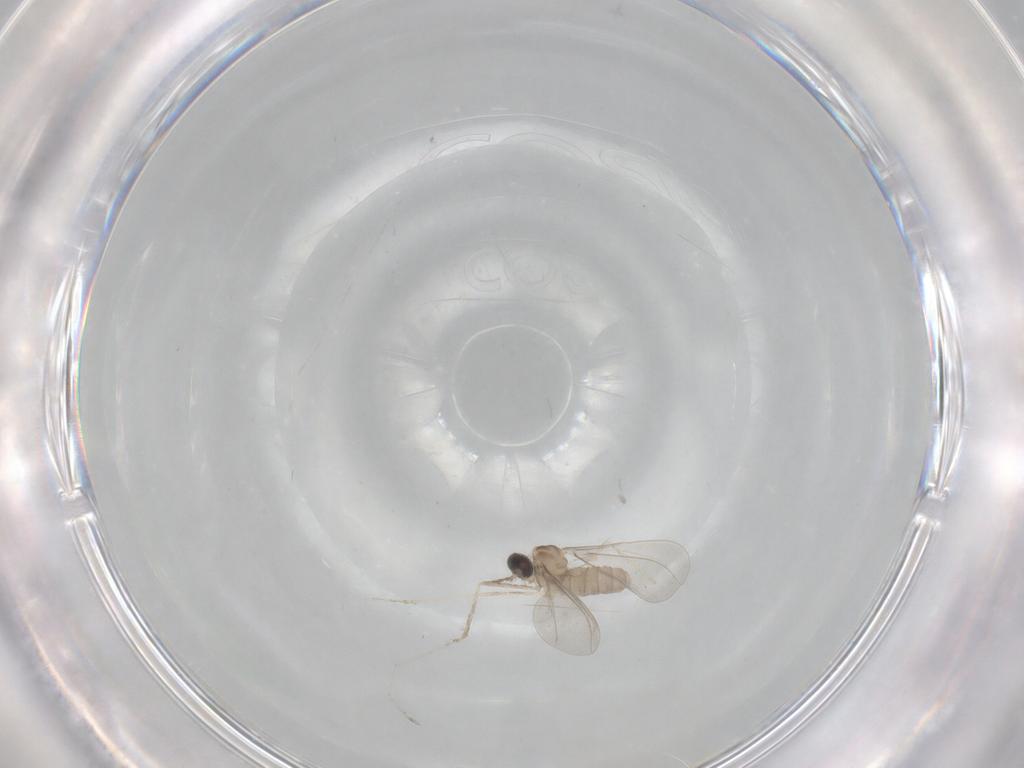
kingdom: Animalia
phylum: Arthropoda
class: Insecta
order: Diptera
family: Cecidomyiidae
